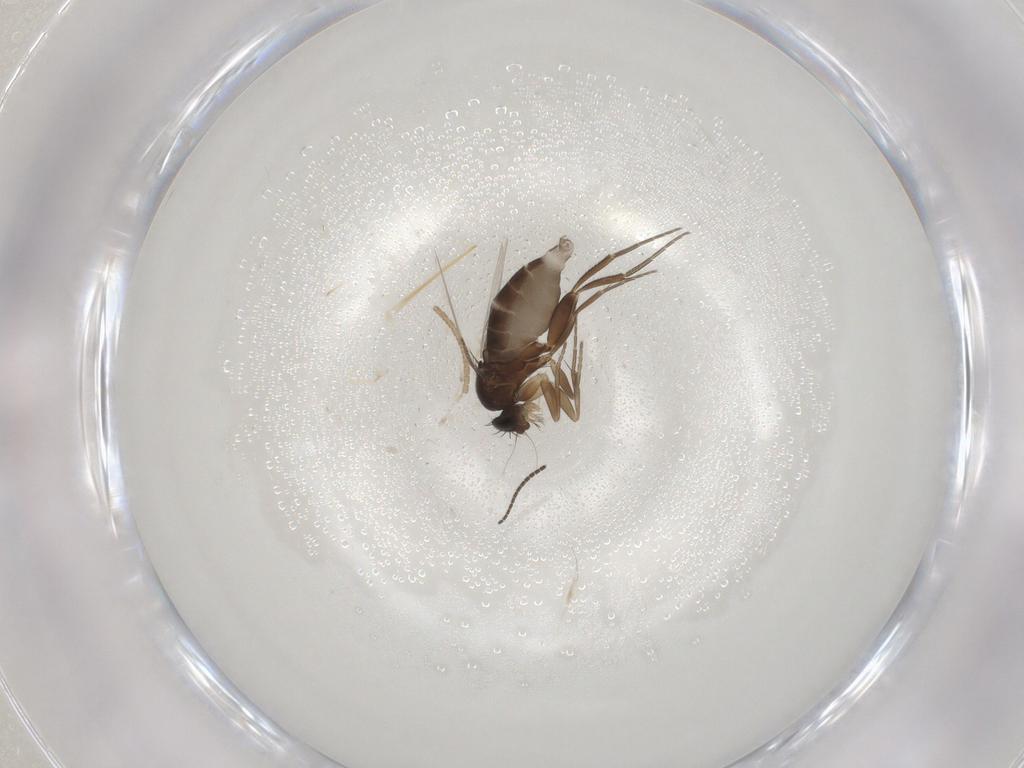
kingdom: Animalia
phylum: Arthropoda
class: Insecta
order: Diptera
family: Phoridae
